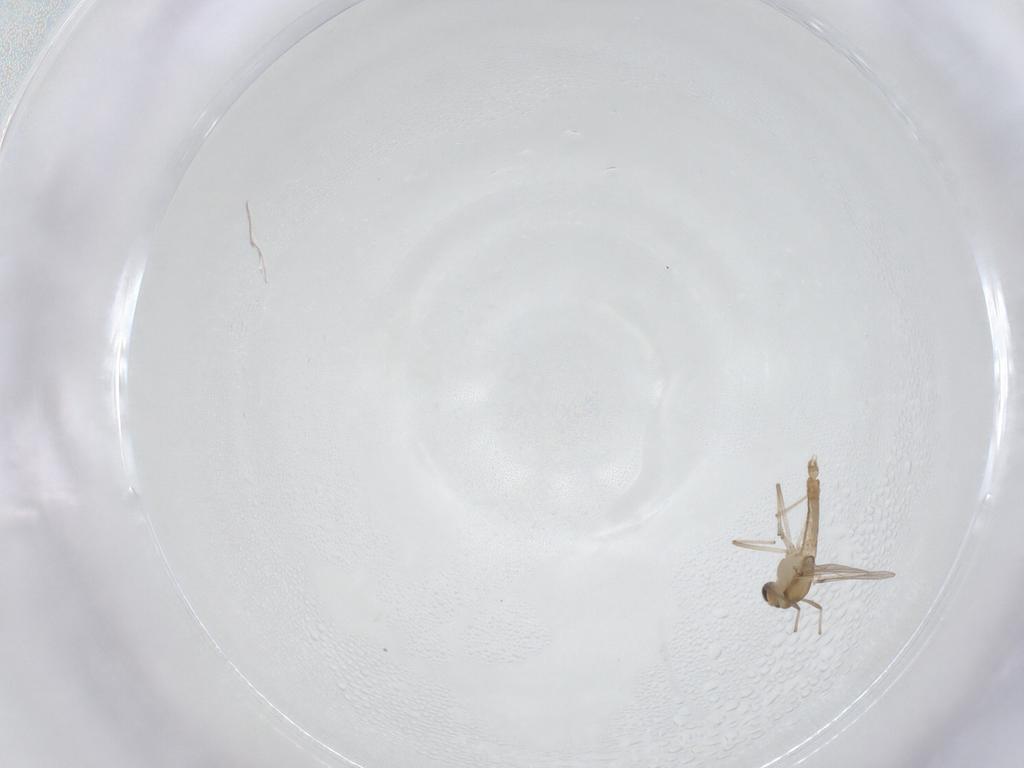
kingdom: Animalia
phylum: Arthropoda
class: Insecta
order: Diptera
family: Chironomidae
